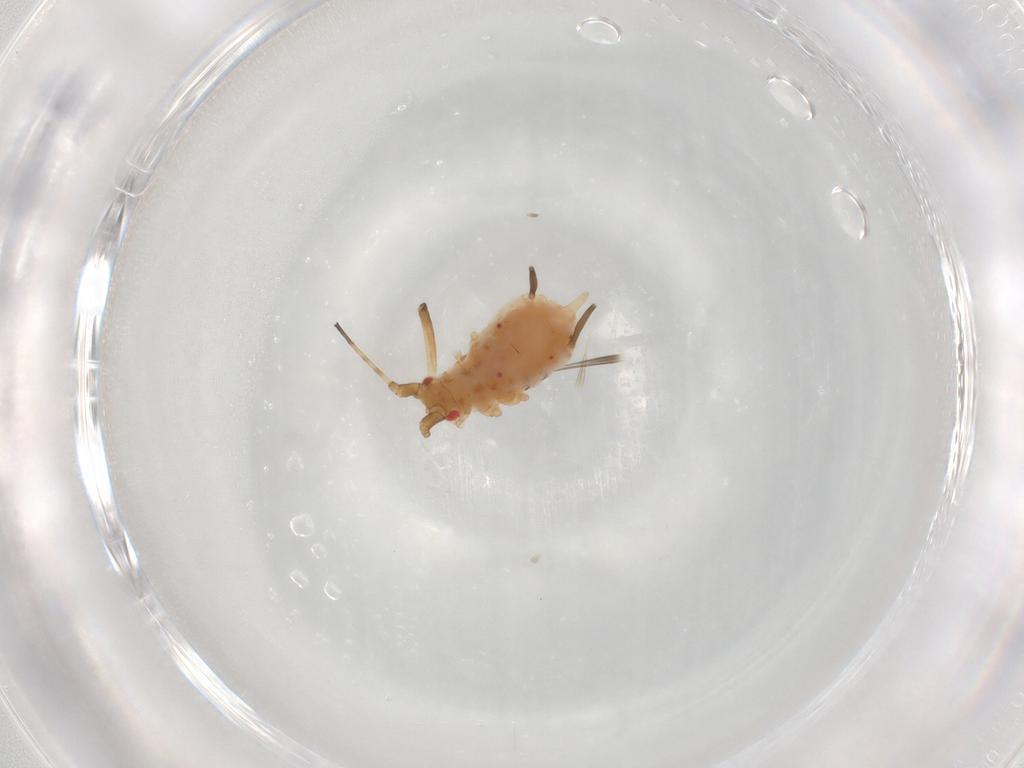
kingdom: Animalia
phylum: Arthropoda
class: Insecta
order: Hemiptera
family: Aphididae
